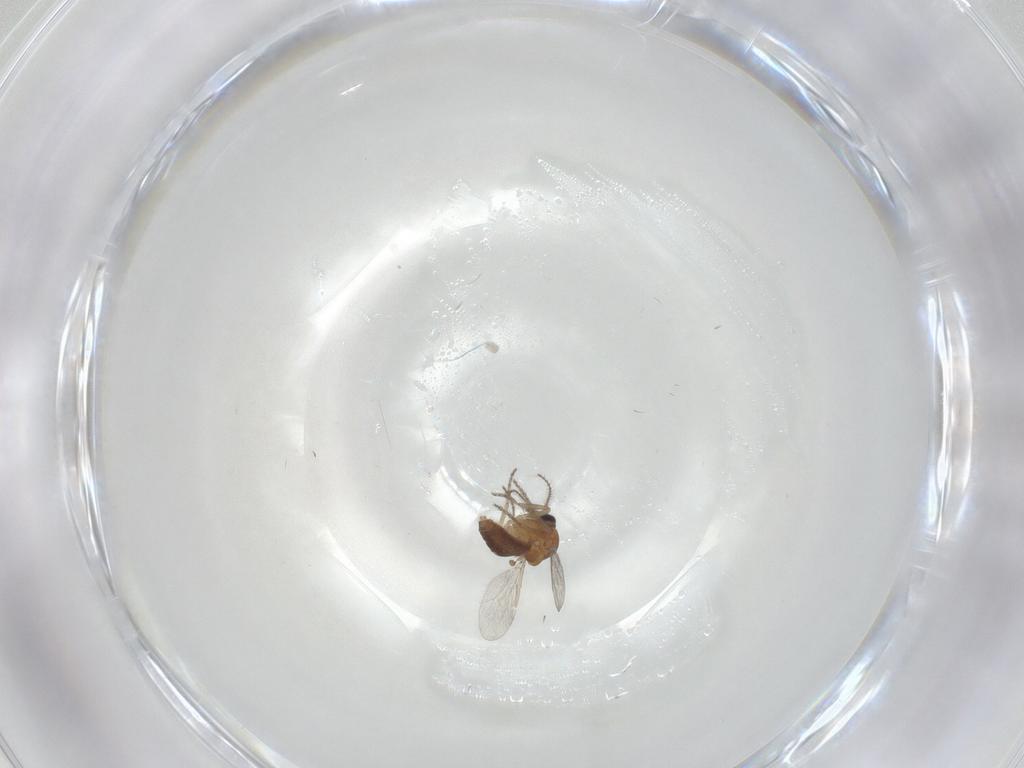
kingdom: Animalia
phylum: Arthropoda
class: Insecta
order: Diptera
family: Ceratopogonidae
